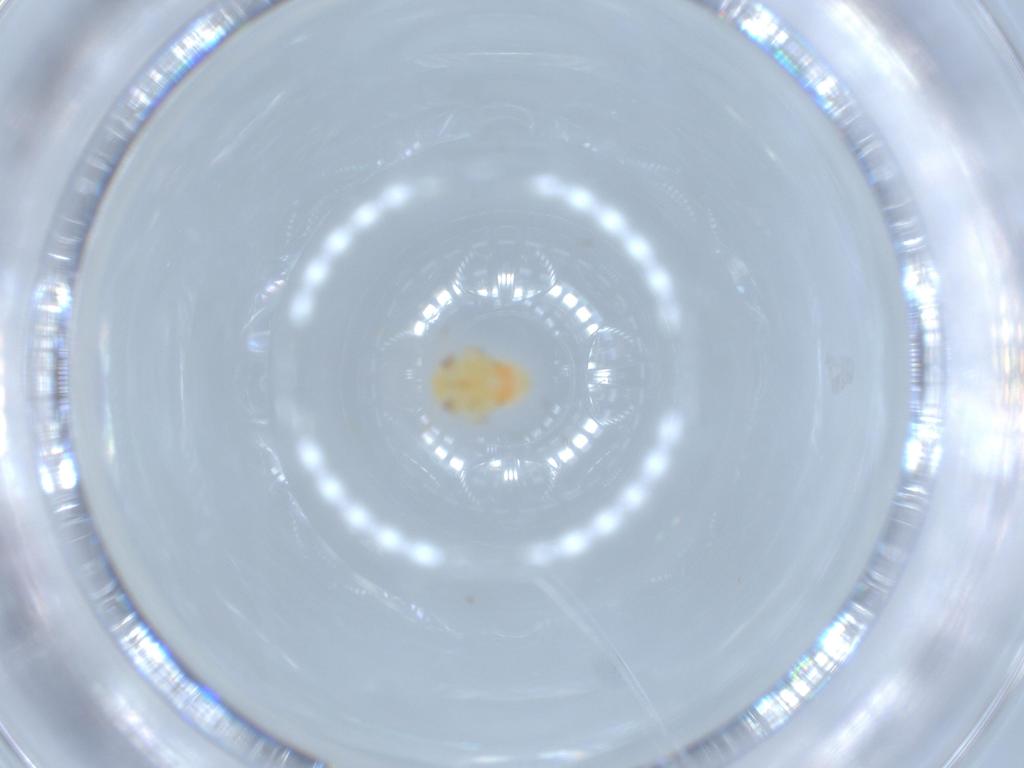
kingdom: Animalia
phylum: Arthropoda
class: Insecta
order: Hemiptera
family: Psyllidae
